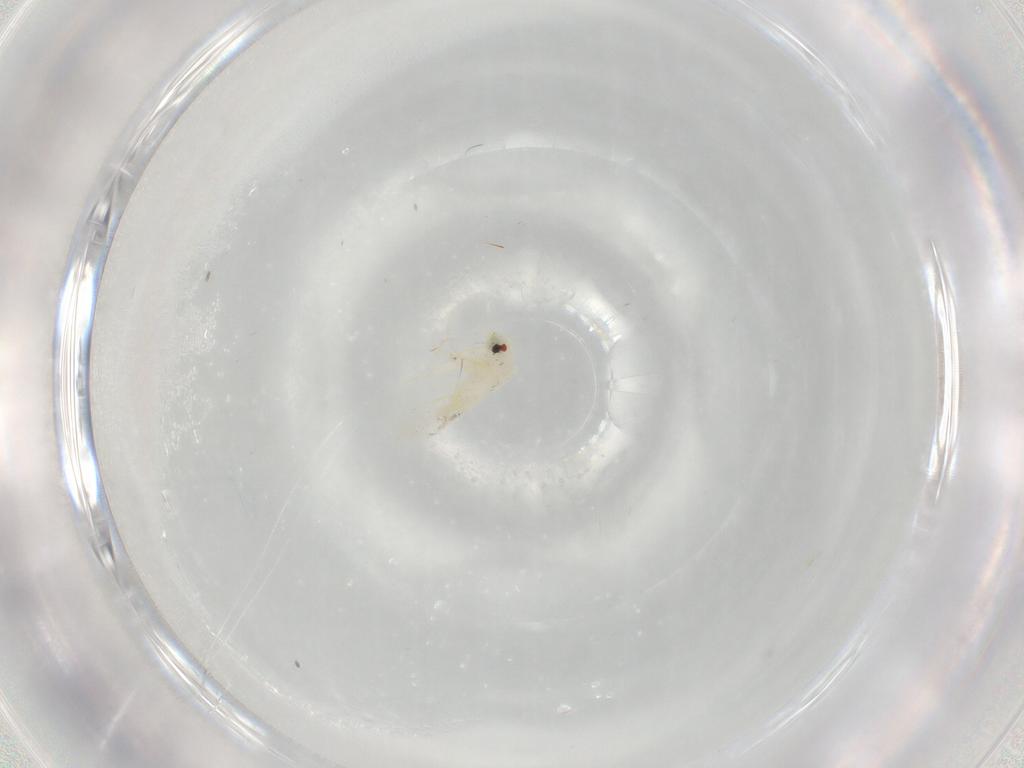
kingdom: Animalia
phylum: Arthropoda
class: Insecta
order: Hemiptera
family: Aleyrodidae
